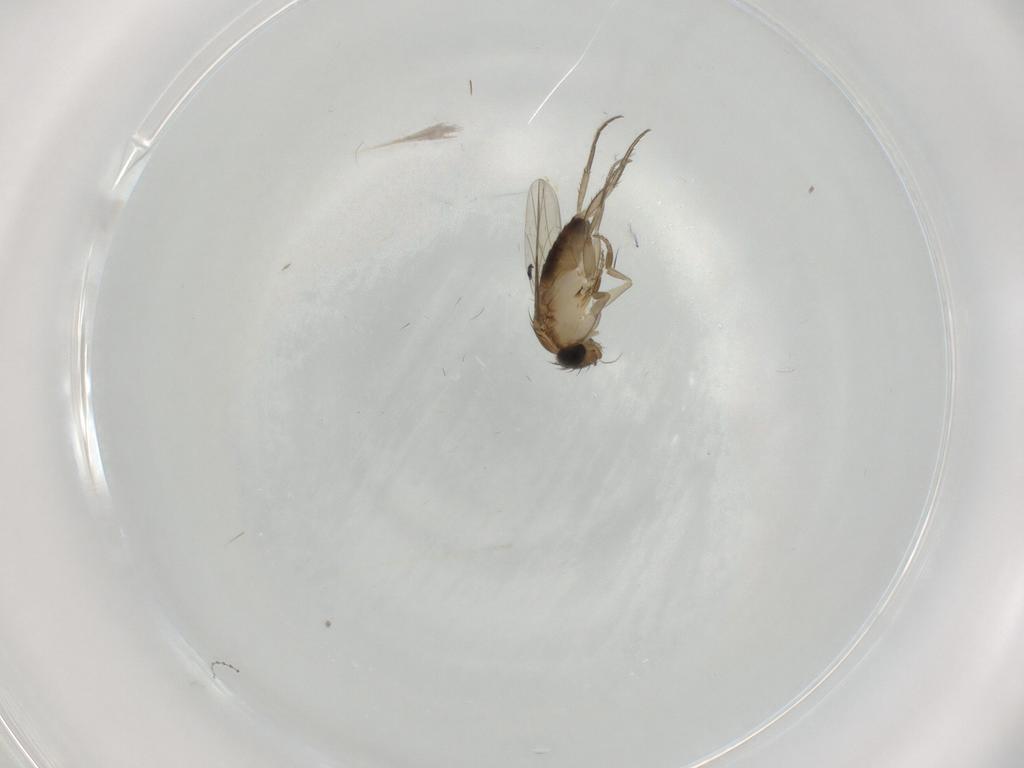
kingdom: Animalia
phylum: Arthropoda
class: Insecta
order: Diptera
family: Phoridae
